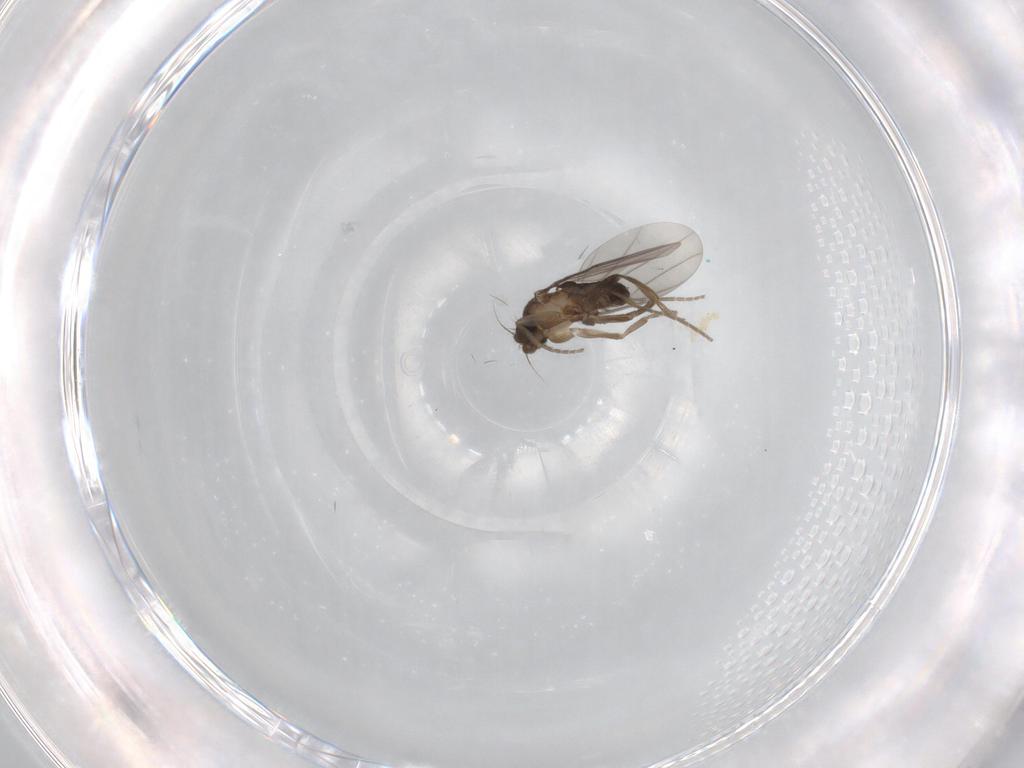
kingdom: Animalia
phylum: Arthropoda
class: Insecta
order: Diptera
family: Phoridae
